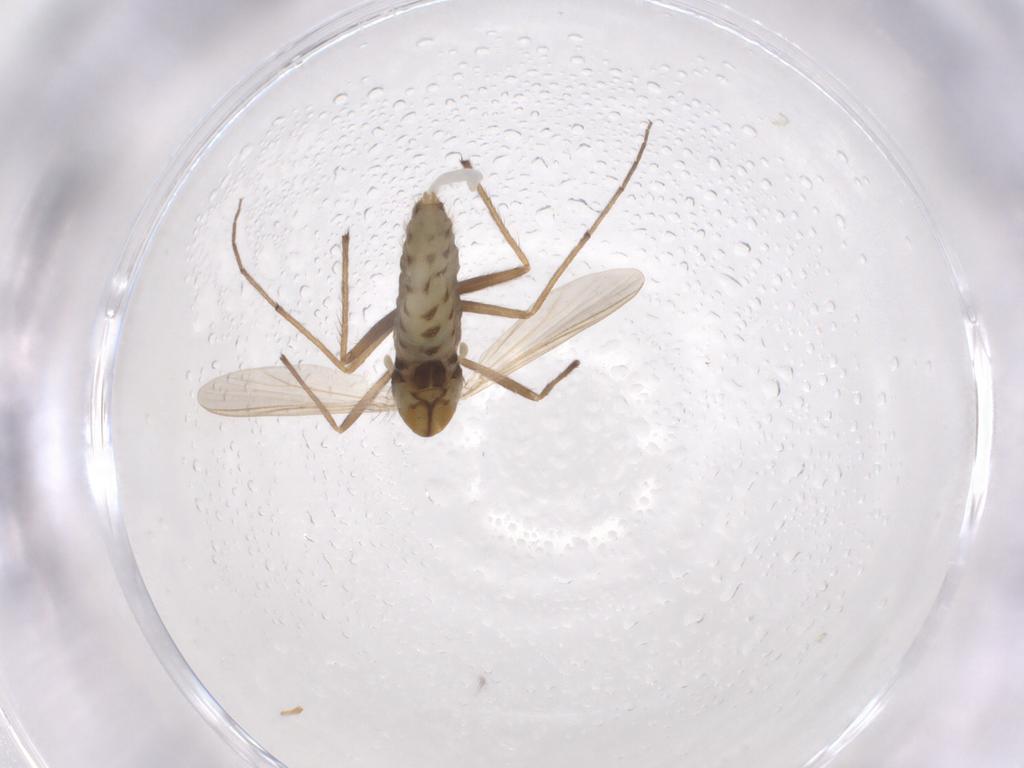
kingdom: Animalia
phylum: Arthropoda
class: Insecta
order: Diptera
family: Chironomidae
